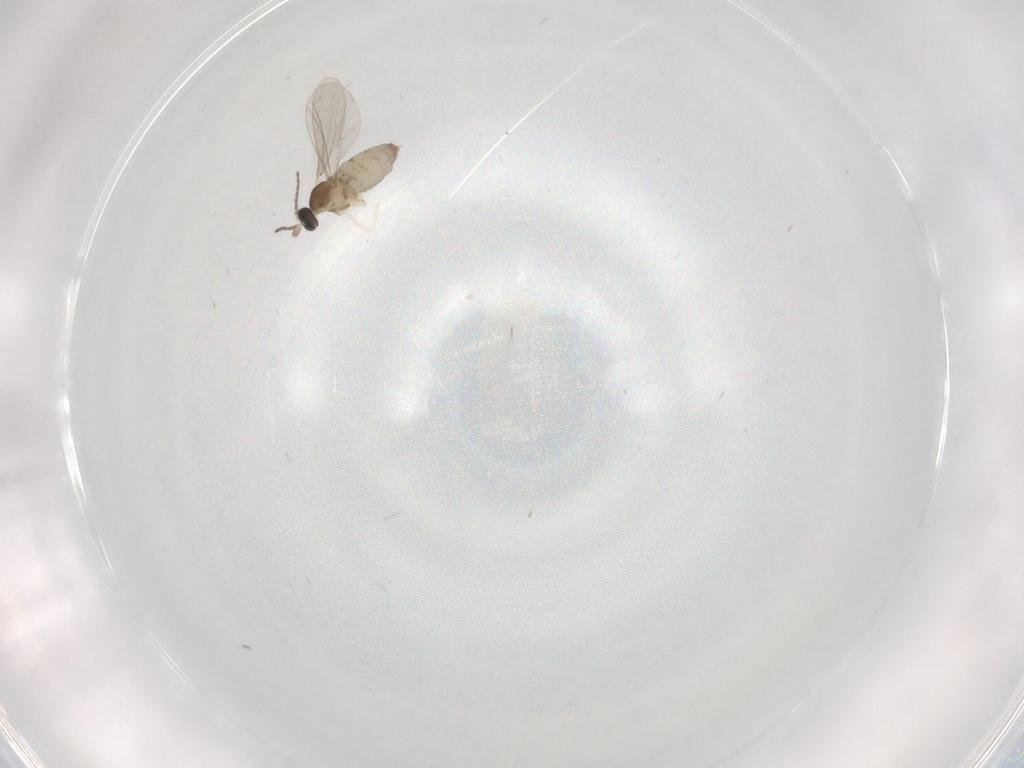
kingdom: Animalia
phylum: Arthropoda
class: Insecta
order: Diptera
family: Cecidomyiidae
